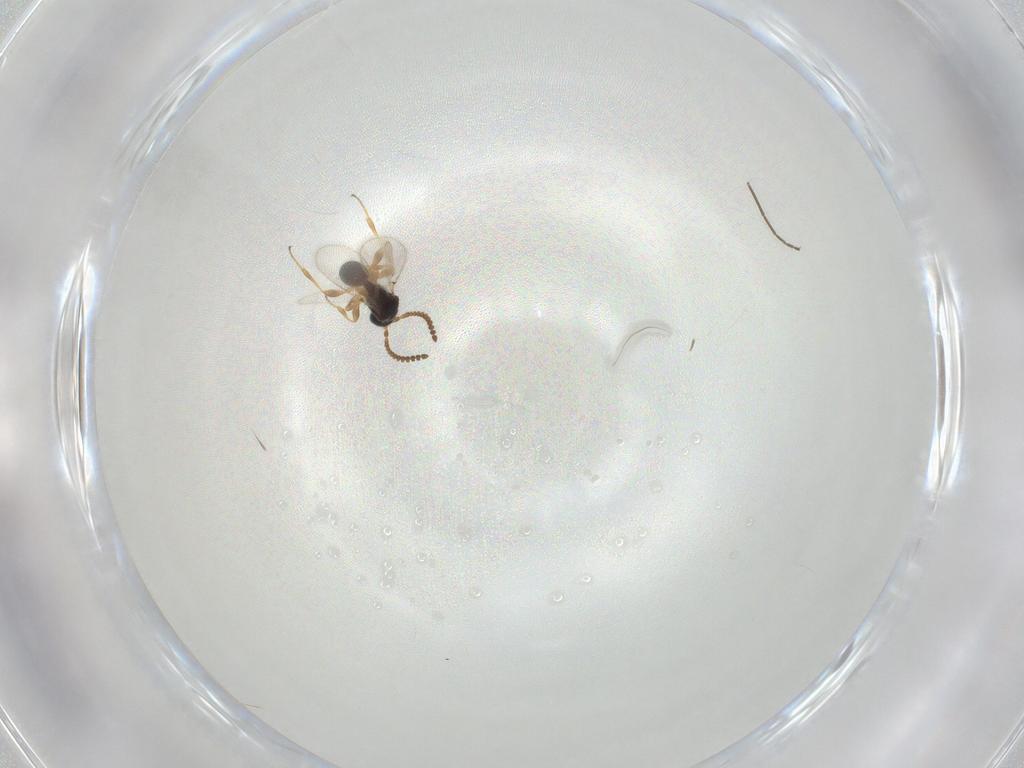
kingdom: Animalia
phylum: Arthropoda
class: Insecta
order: Hymenoptera
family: Diapriidae
